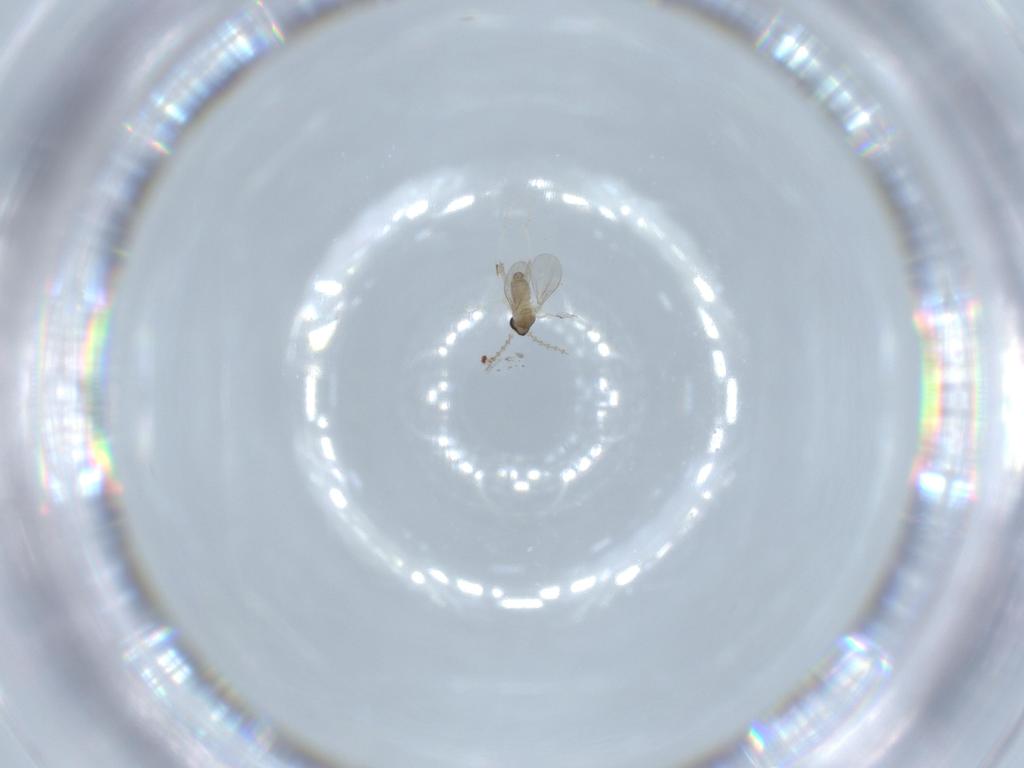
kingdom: Animalia
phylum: Arthropoda
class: Insecta
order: Diptera
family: Cecidomyiidae
